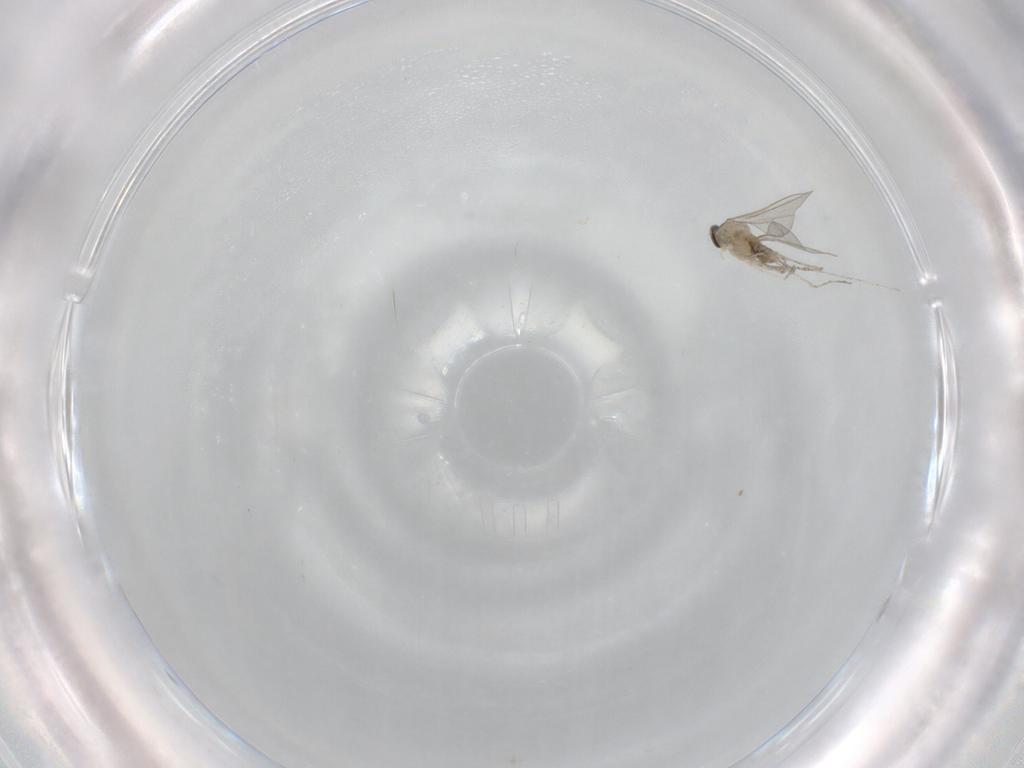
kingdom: Animalia
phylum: Arthropoda
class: Insecta
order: Diptera
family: Cecidomyiidae
